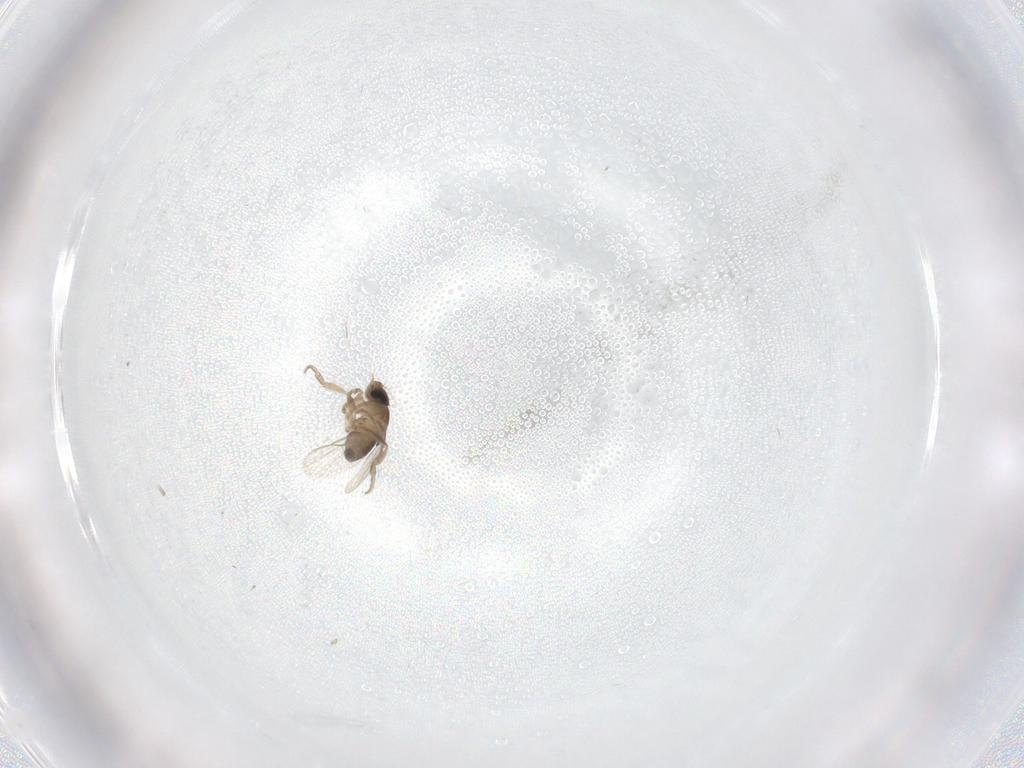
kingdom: Animalia
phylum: Arthropoda
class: Insecta
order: Diptera
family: Phoridae
